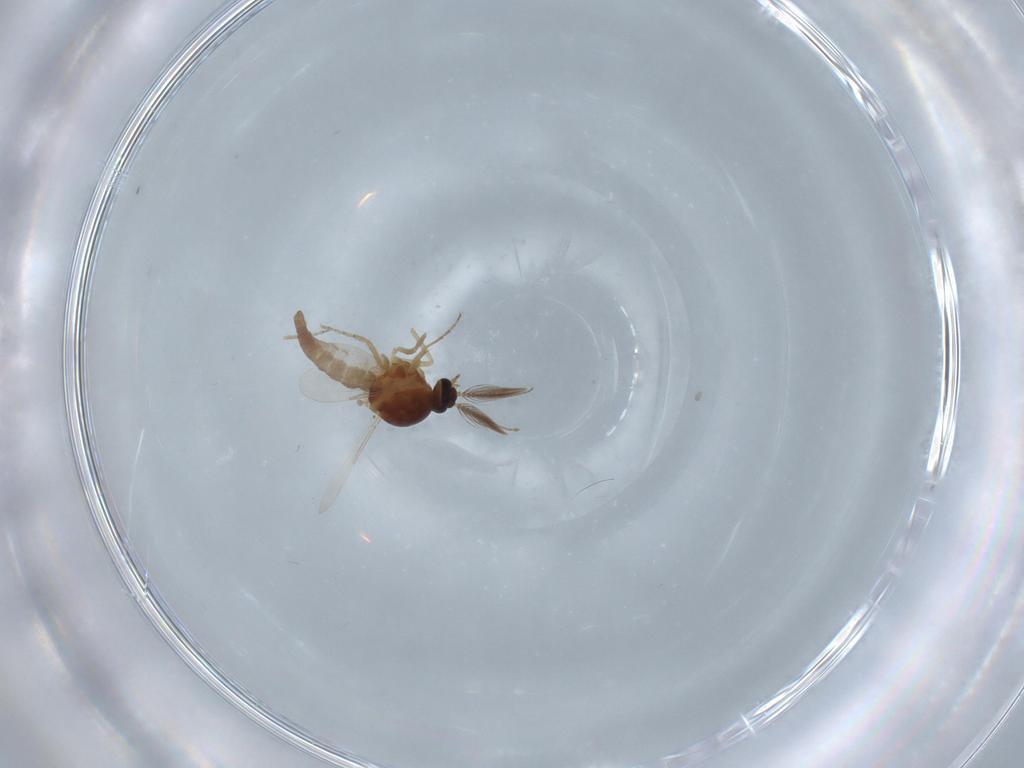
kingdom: Animalia
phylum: Arthropoda
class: Insecta
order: Diptera
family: Ceratopogonidae
